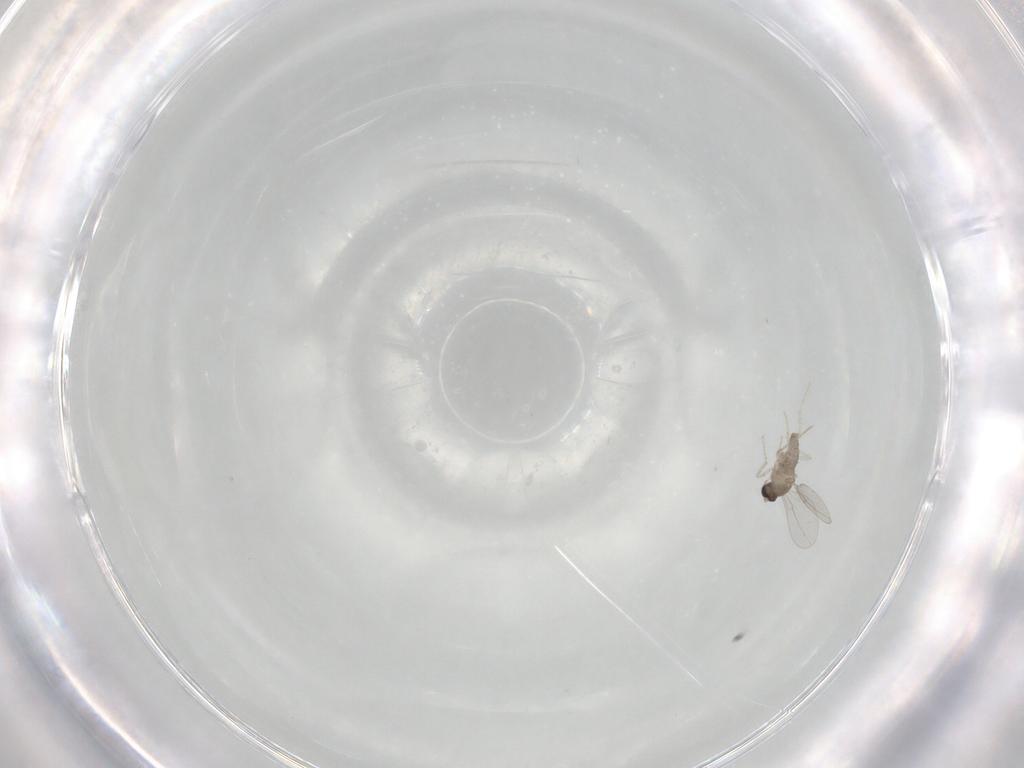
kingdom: Animalia
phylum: Arthropoda
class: Insecta
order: Diptera
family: Cecidomyiidae
